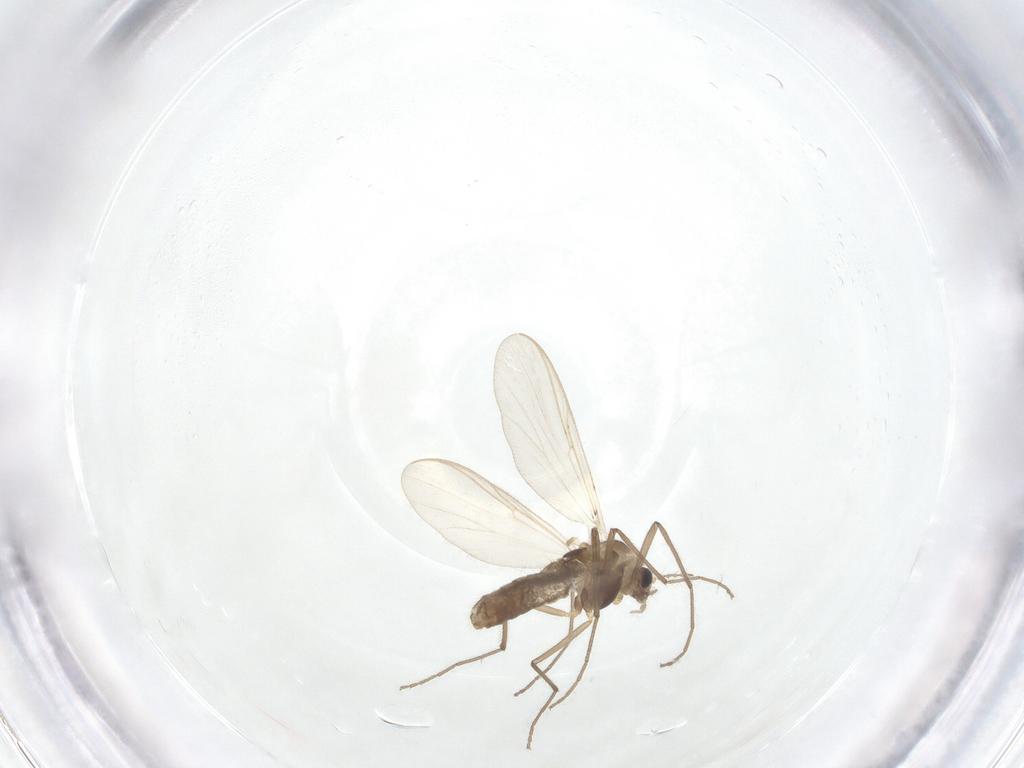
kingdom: Animalia
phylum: Arthropoda
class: Insecta
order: Diptera
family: Chironomidae
